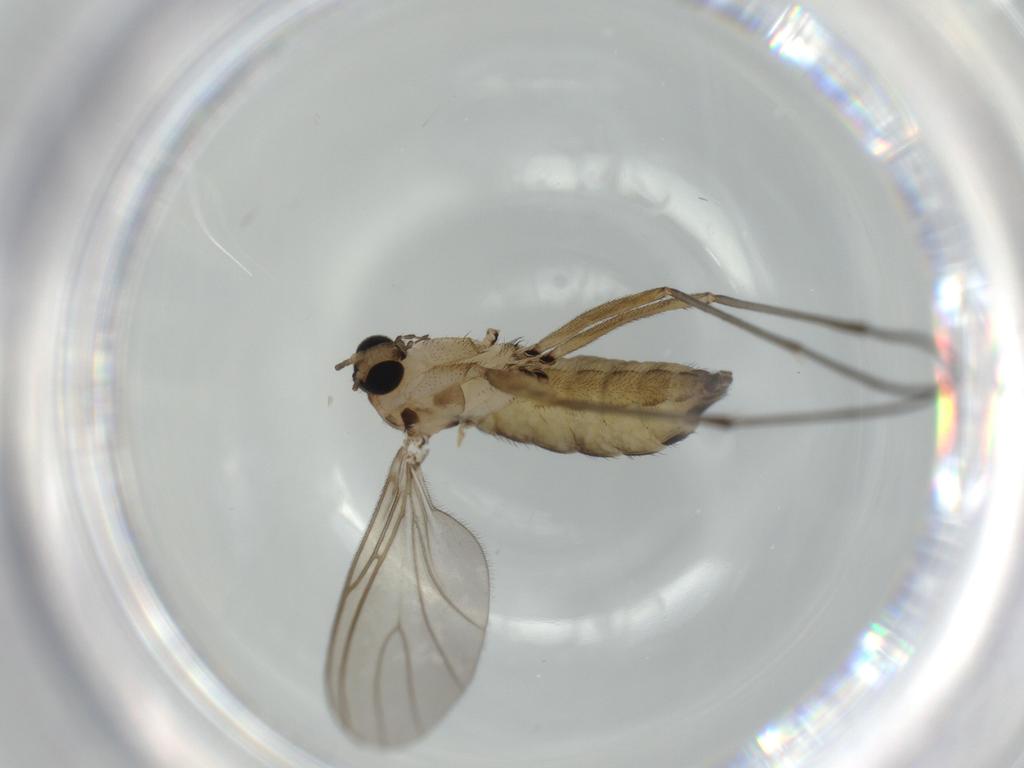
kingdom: Animalia
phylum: Arthropoda
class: Insecta
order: Diptera
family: Sciaridae
